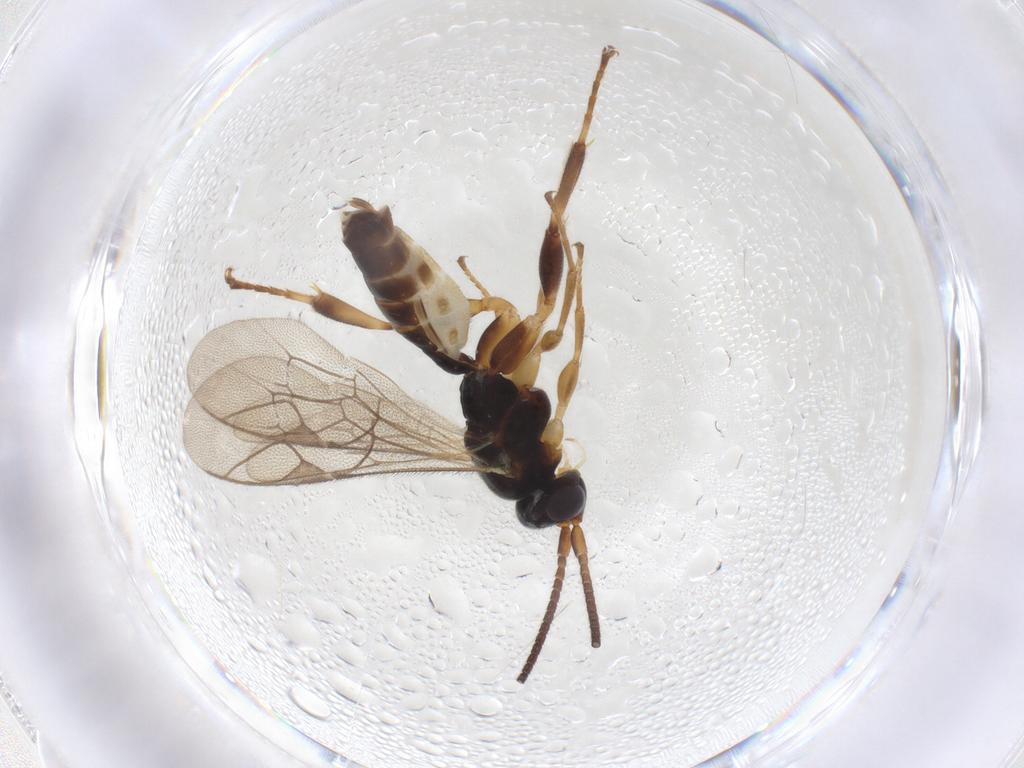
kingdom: Animalia
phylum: Arthropoda
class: Insecta
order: Hymenoptera
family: Ichneumonidae
